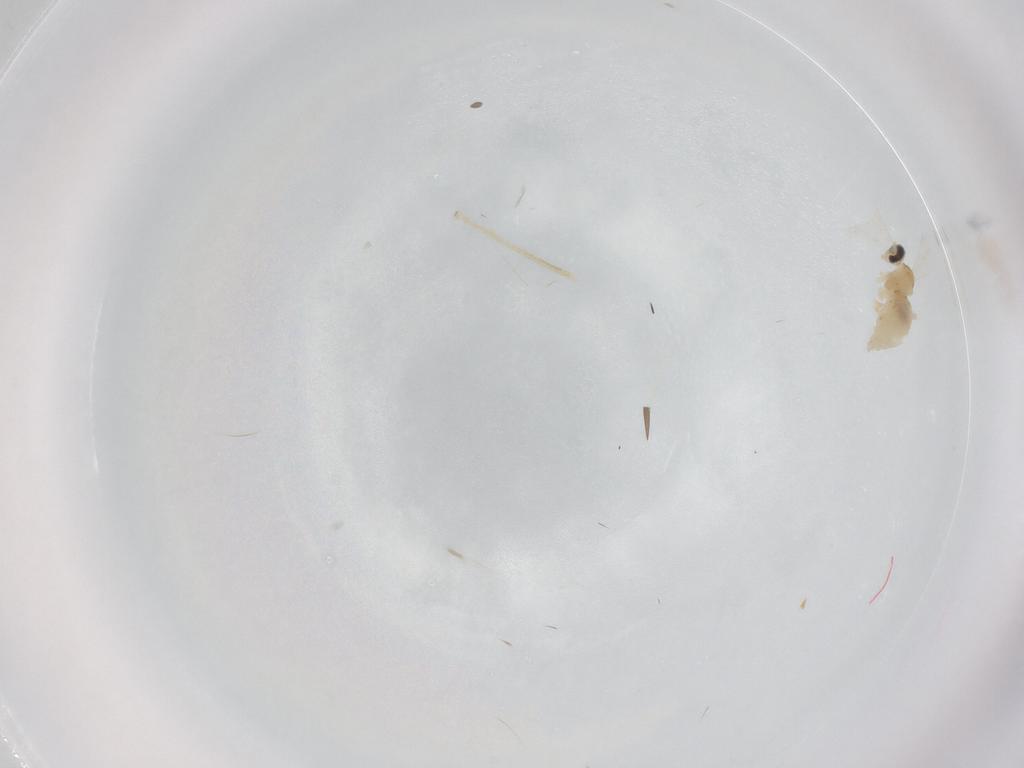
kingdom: Animalia
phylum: Arthropoda
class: Insecta
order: Diptera
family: Chironomidae
